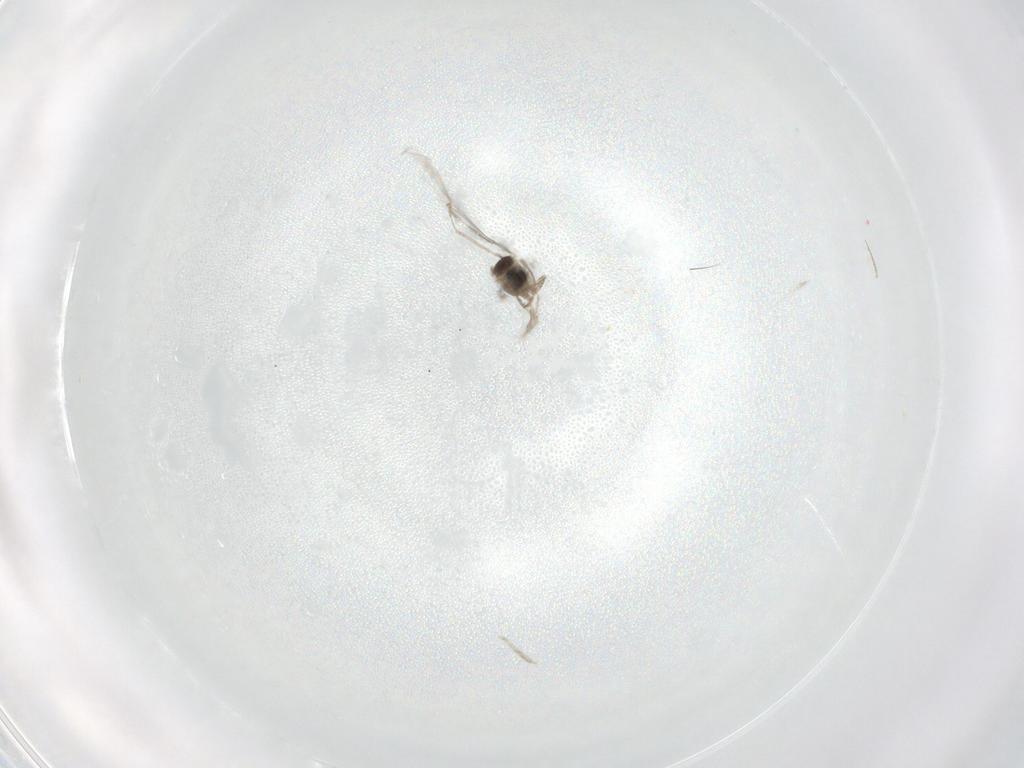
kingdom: Animalia
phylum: Arthropoda
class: Insecta
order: Diptera
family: Cecidomyiidae
